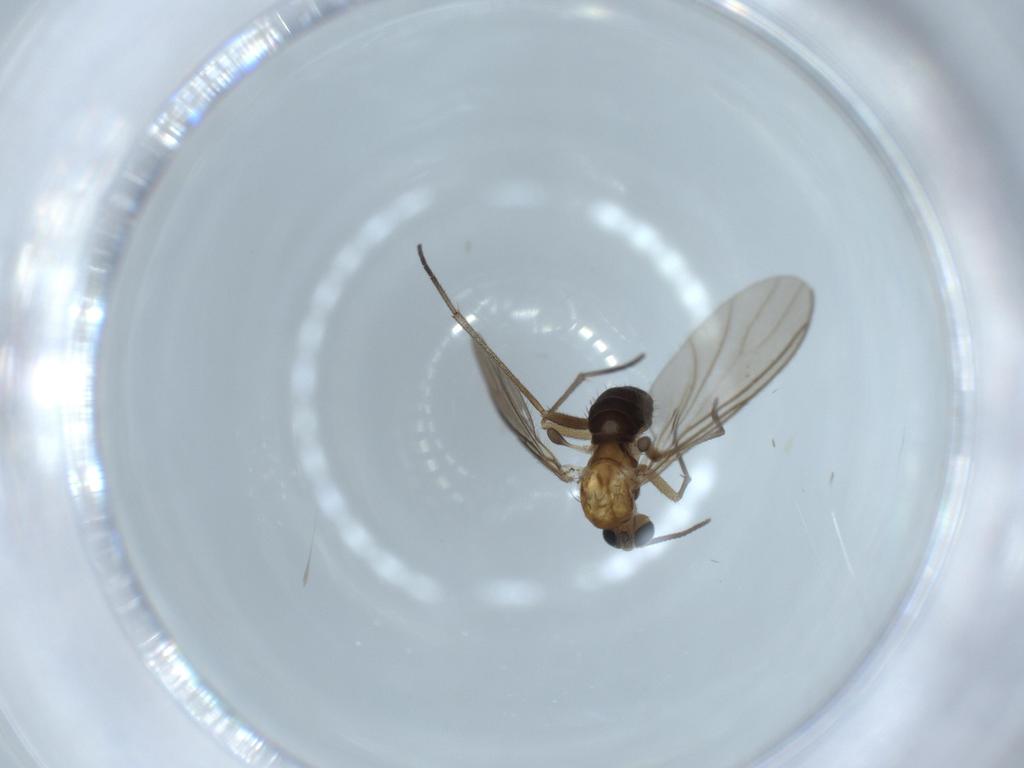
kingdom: Animalia
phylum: Arthropoda
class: Insecta
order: Diptera
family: Sciaridae
